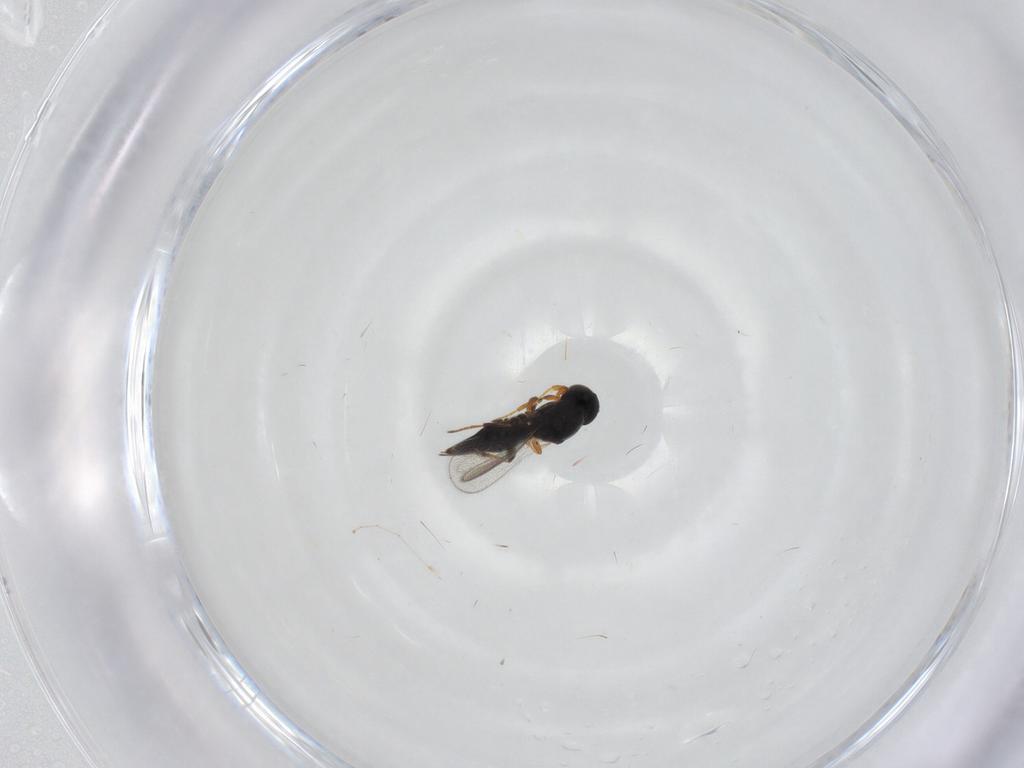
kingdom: Animalia
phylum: Arthropoda
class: Insecta
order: Hymenoptera
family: Platygastridae
